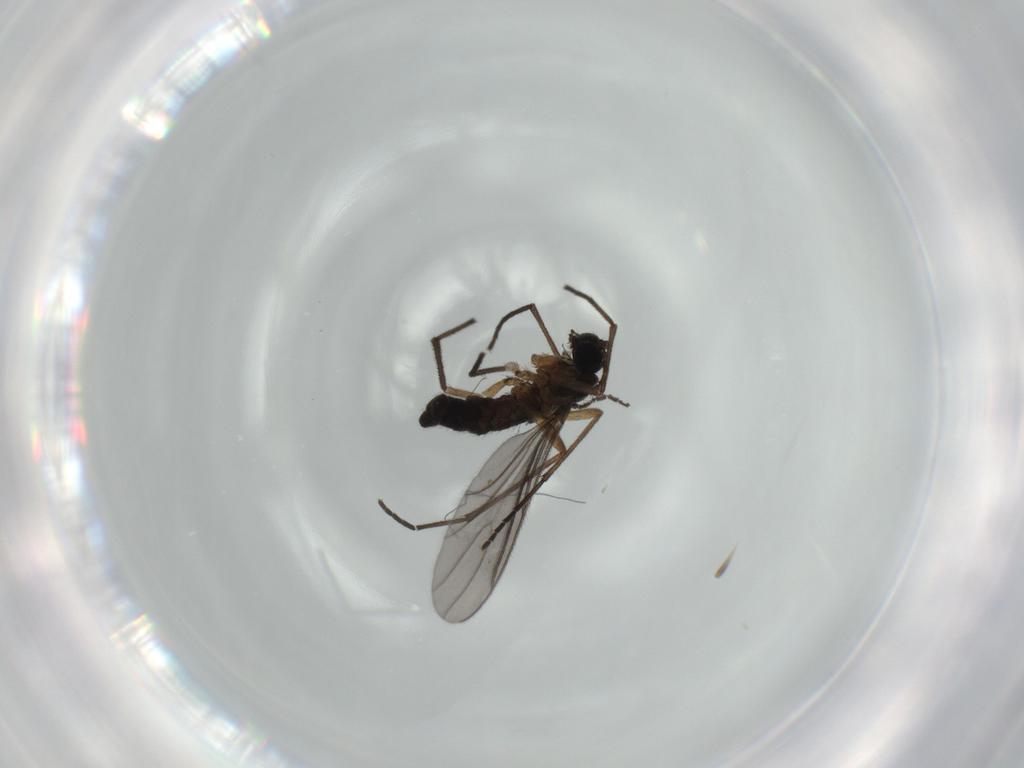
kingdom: Animalia
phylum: Arthropoda
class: Insecta
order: Diptera
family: Sciaridae
